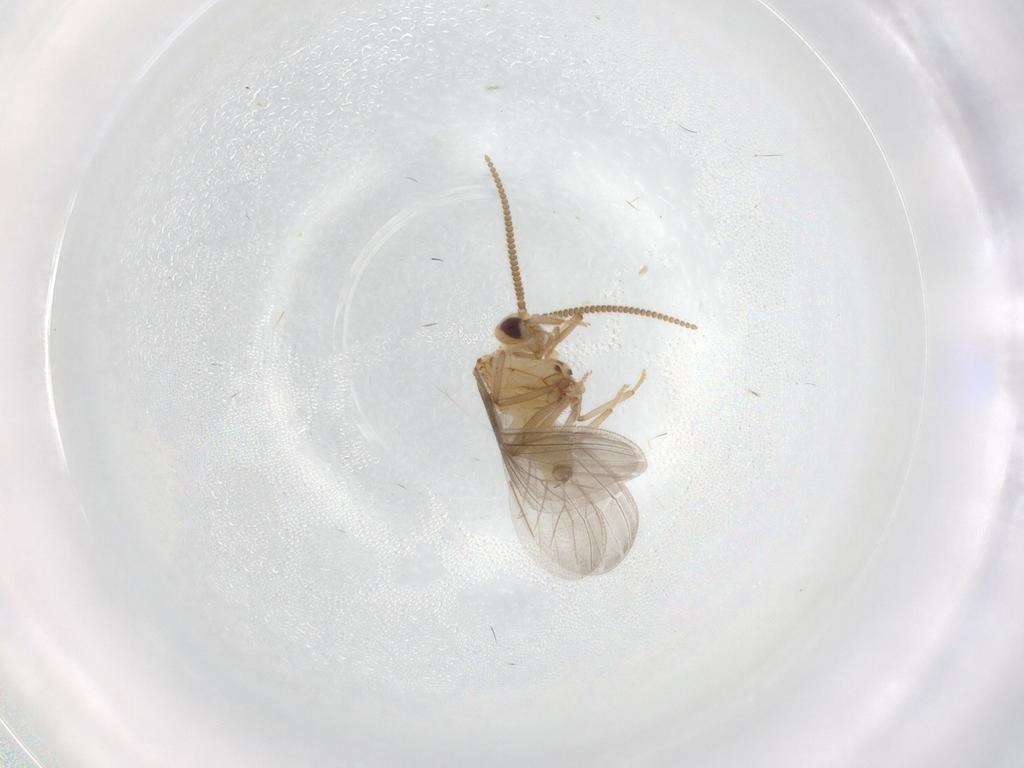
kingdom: Animalia
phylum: Arthropoda
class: Insecta
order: Neuroptera
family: Coniopterygidae
